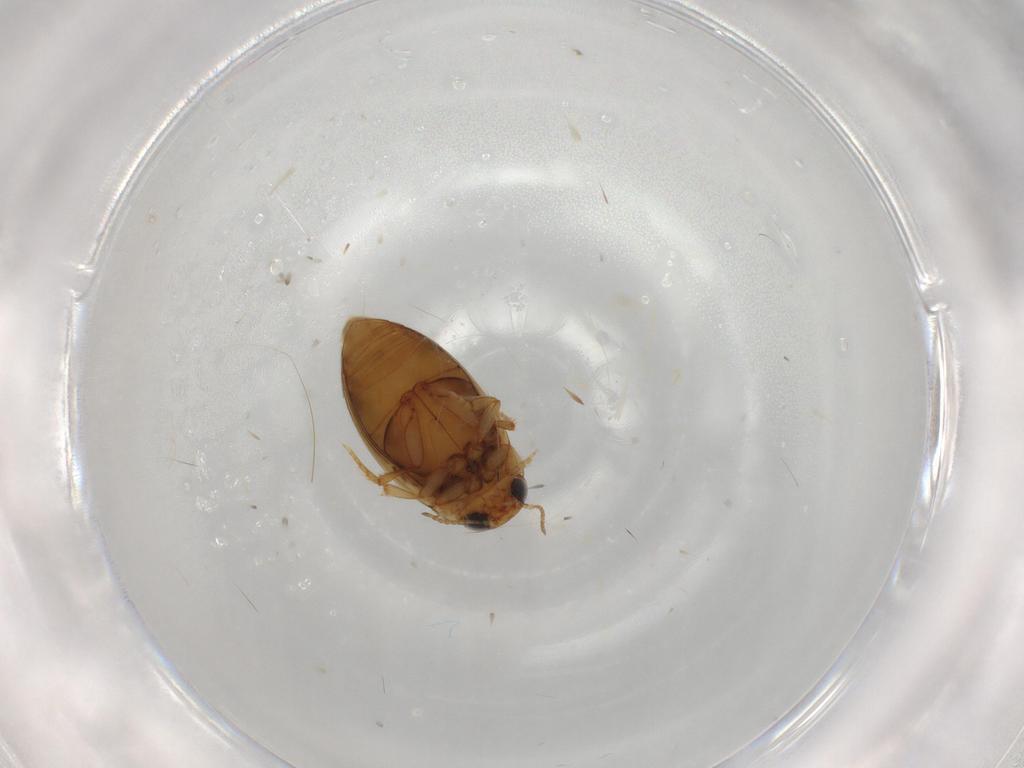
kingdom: Animalia
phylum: Arthropoda
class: Insecta
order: Coleoptera
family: Dytiscidae
